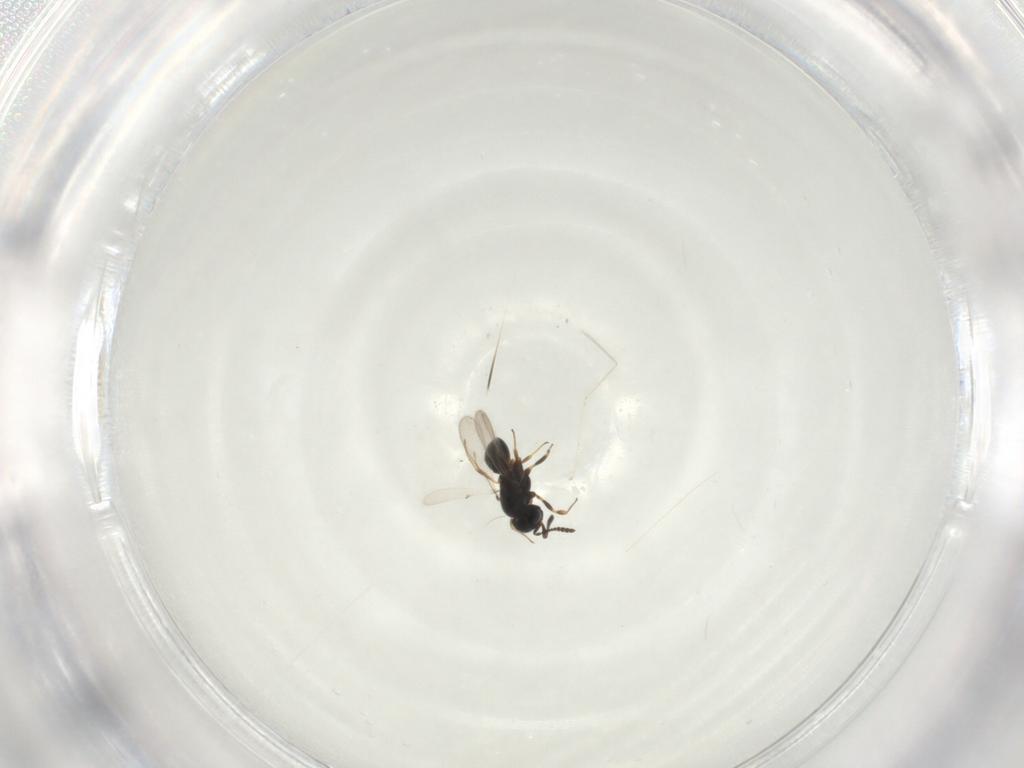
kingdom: Animalia
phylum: Arthropoda
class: Insecta
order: Hymenoptera
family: Scelionidae
